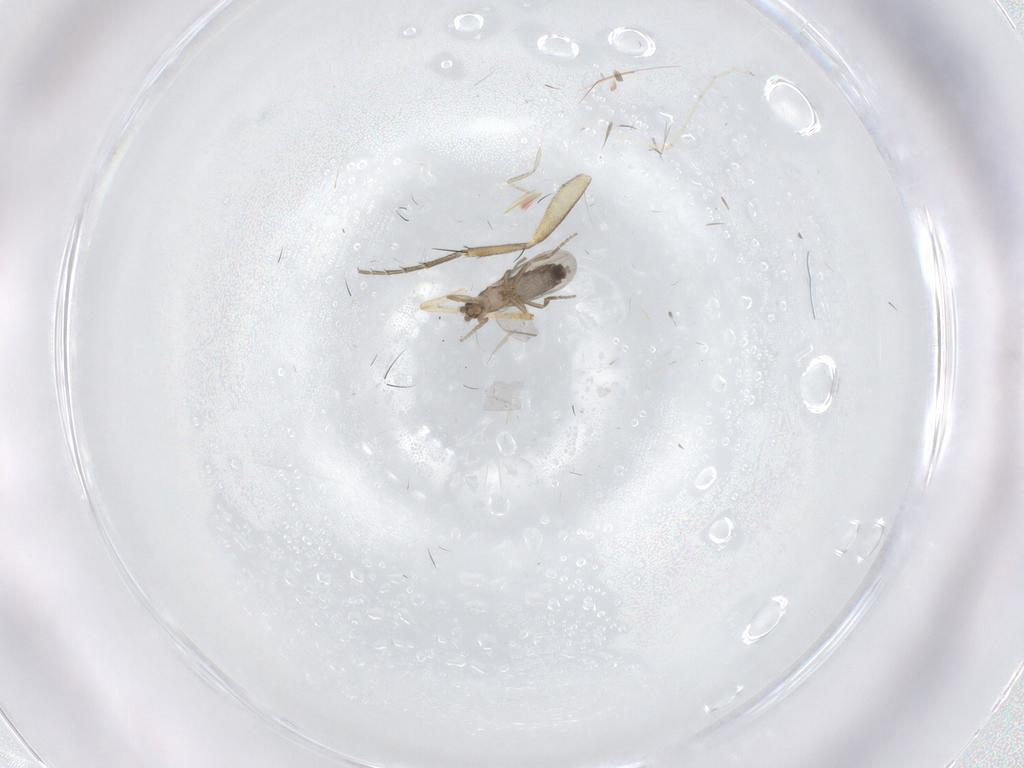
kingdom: Animalia
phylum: Arthropoda
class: Insecta
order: Diptera
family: Phoridae
